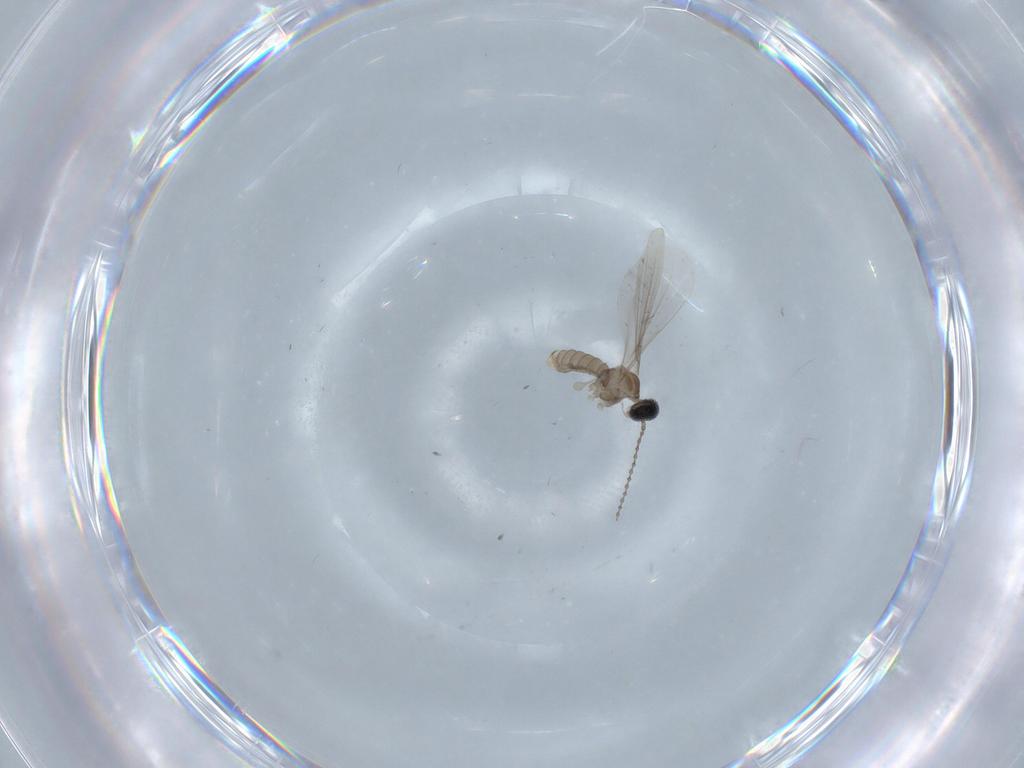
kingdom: Animalia
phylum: Arthropoda
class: Insecta
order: Diptera
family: Cecidomyiidae
